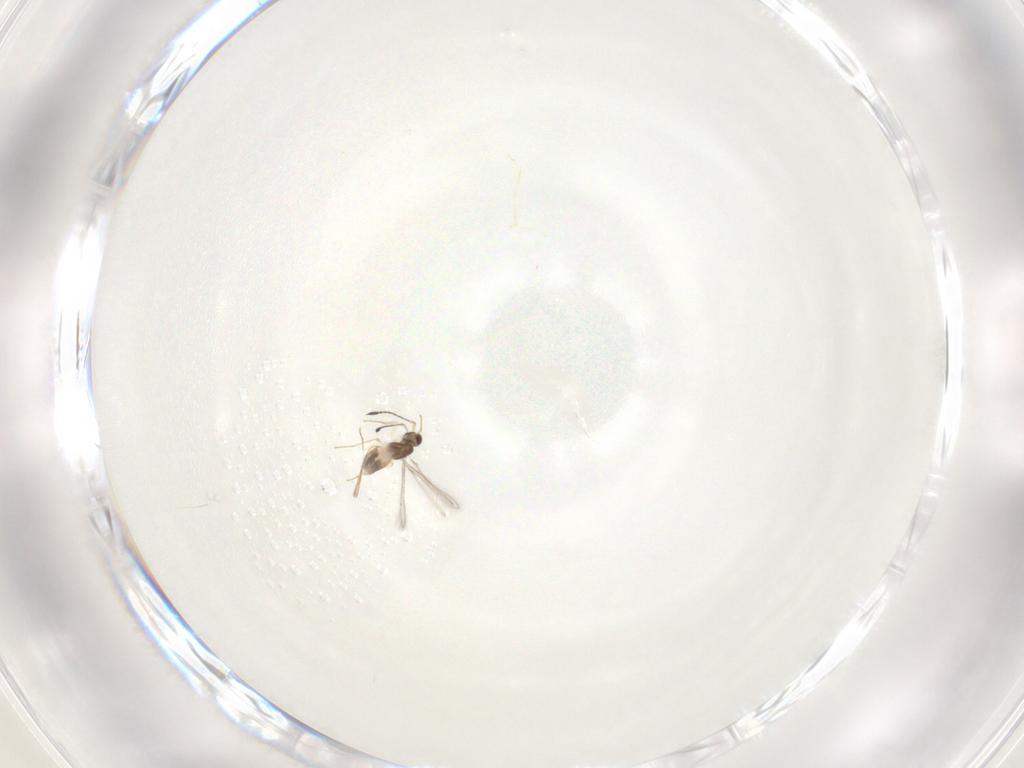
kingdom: Animalia
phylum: Arthropoda
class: Insecta
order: Hymenoptera
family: Mymaridae
